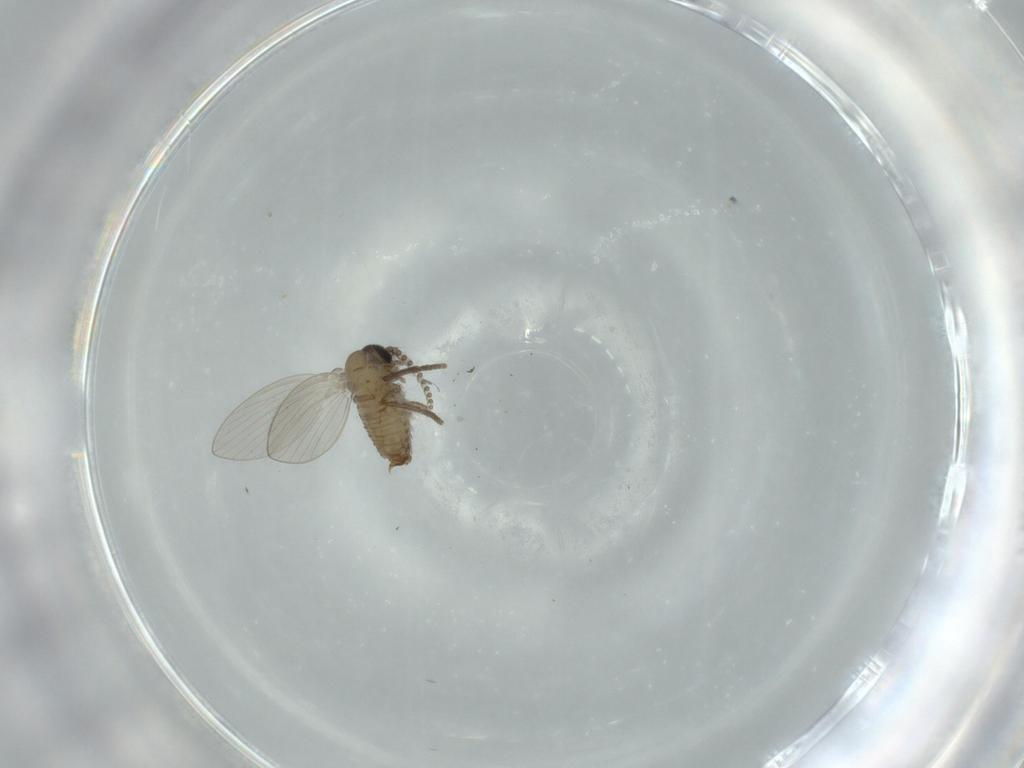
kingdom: Animalia
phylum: Arthropoda
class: Insecta
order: Diptera
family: Psychodidae
